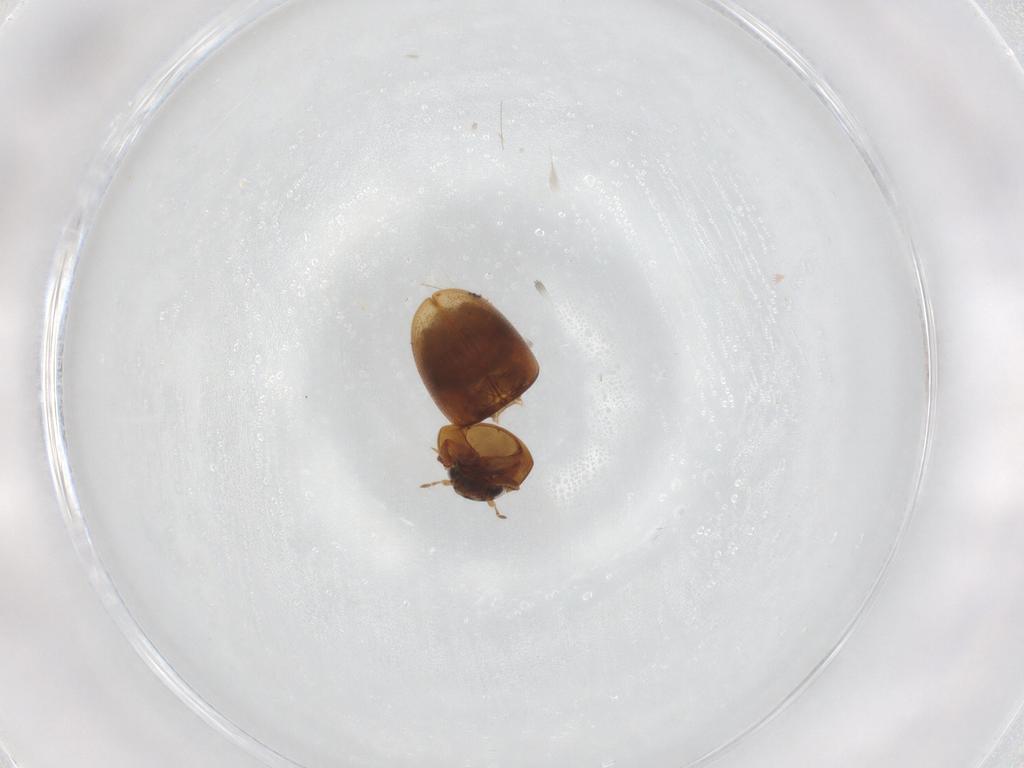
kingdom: Animalia
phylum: Arthropoda
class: Insecta
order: Coleoptera
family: Hydrophilidae
